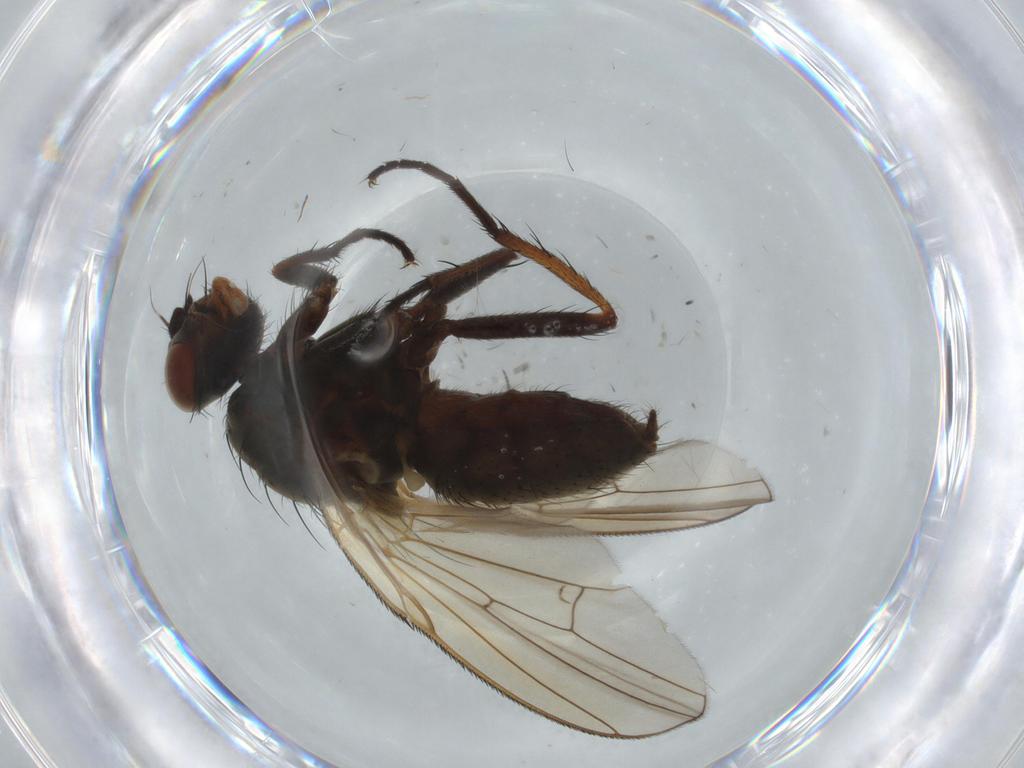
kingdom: Animalia
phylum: Arthropoda
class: Insecta
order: Diptera
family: Anthomyiidae
